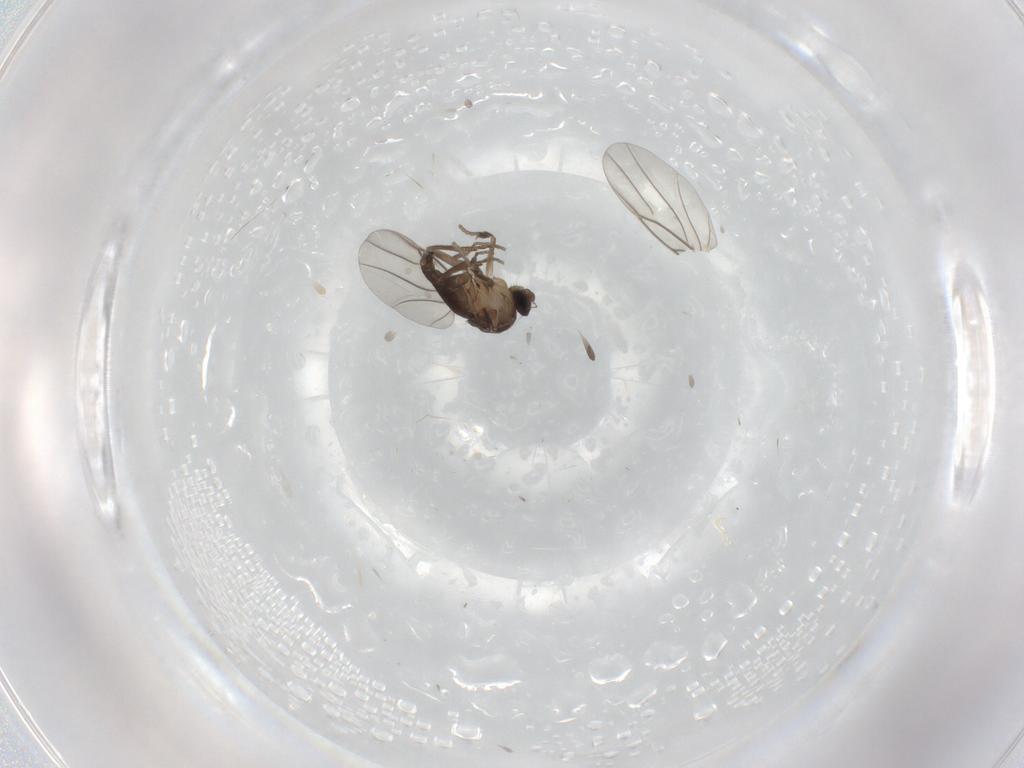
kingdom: Animalia
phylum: Arthropoda
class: Insecta
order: Diptera
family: Phoridae
